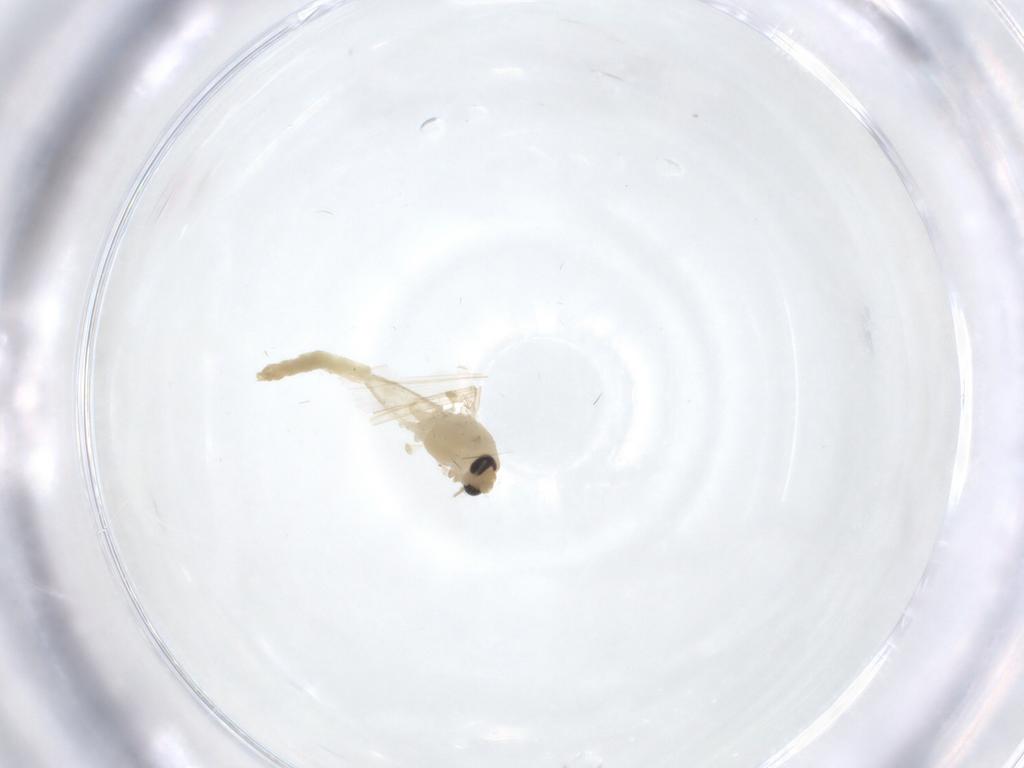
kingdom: Animalia
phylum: Arthropoda
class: Insecta
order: Diptera
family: Chironomidae
